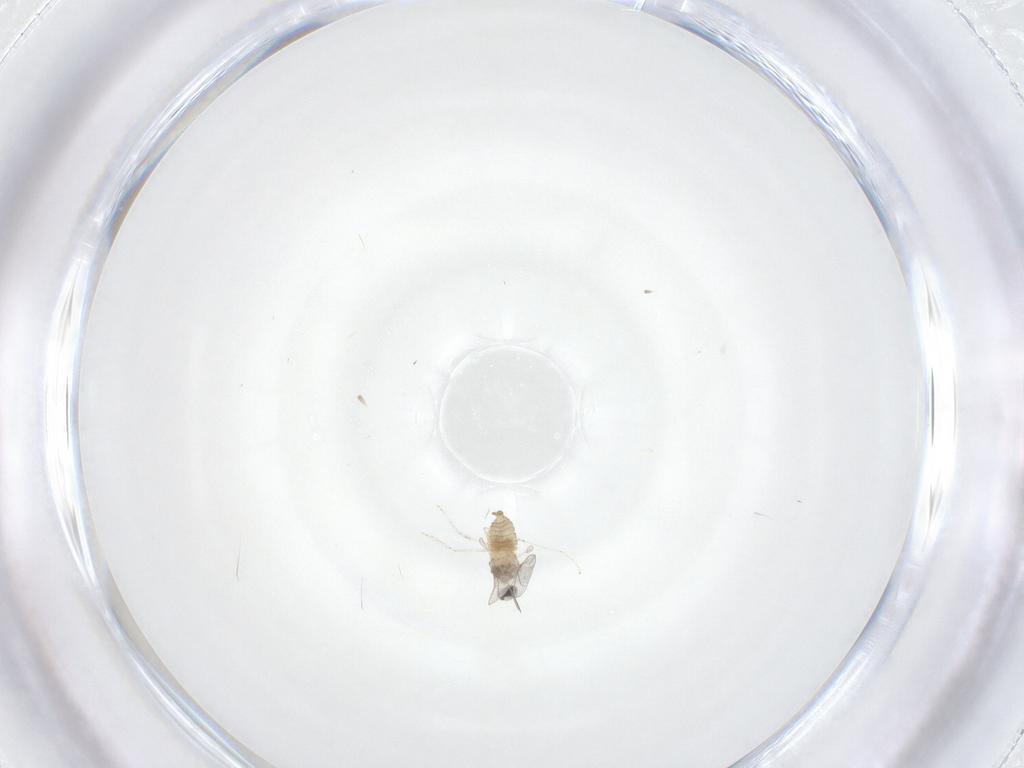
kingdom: Animalia
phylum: Arthropoda
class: Insecta
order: Diptera
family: Cecidomyiidae
